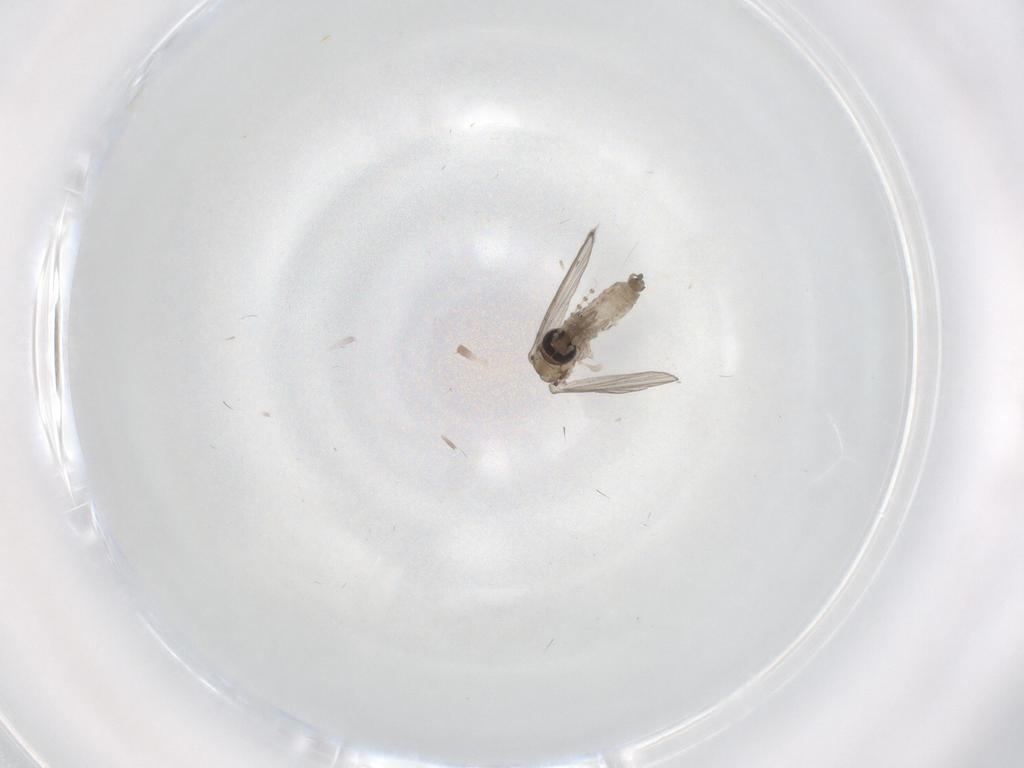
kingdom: Animalia
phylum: Arthropoda
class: Insecta
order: Diptera
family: Psychodidae
